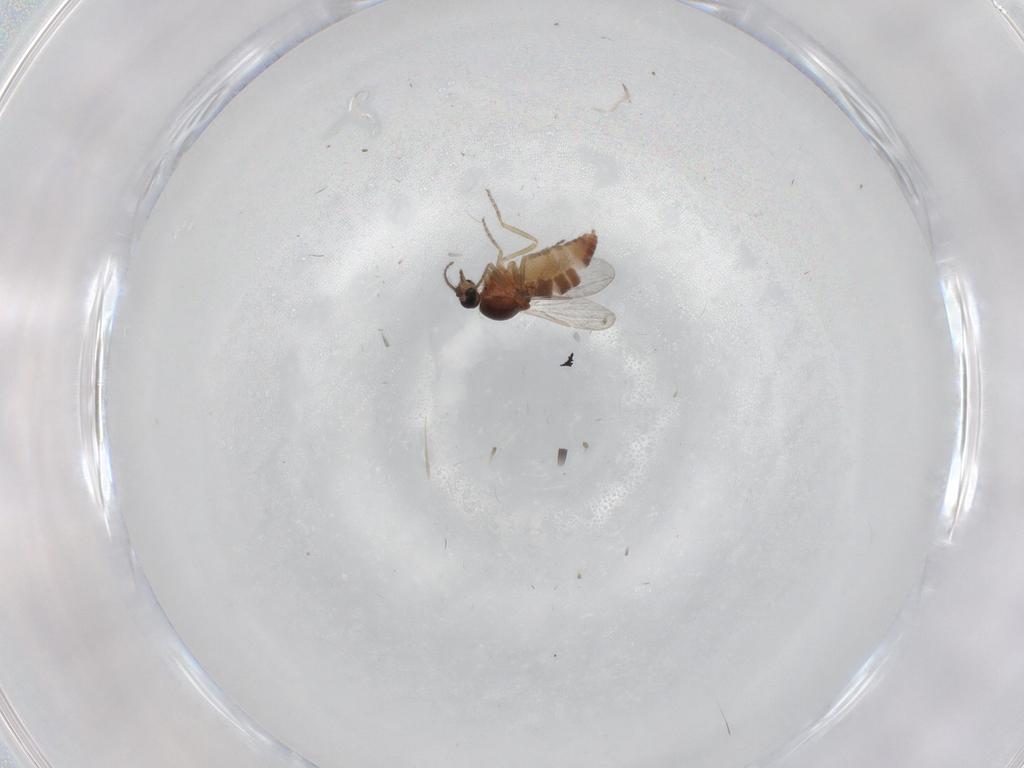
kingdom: Animalia
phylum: Arthropoda
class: Insecta
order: Diptera
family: Ceratopogonidae
